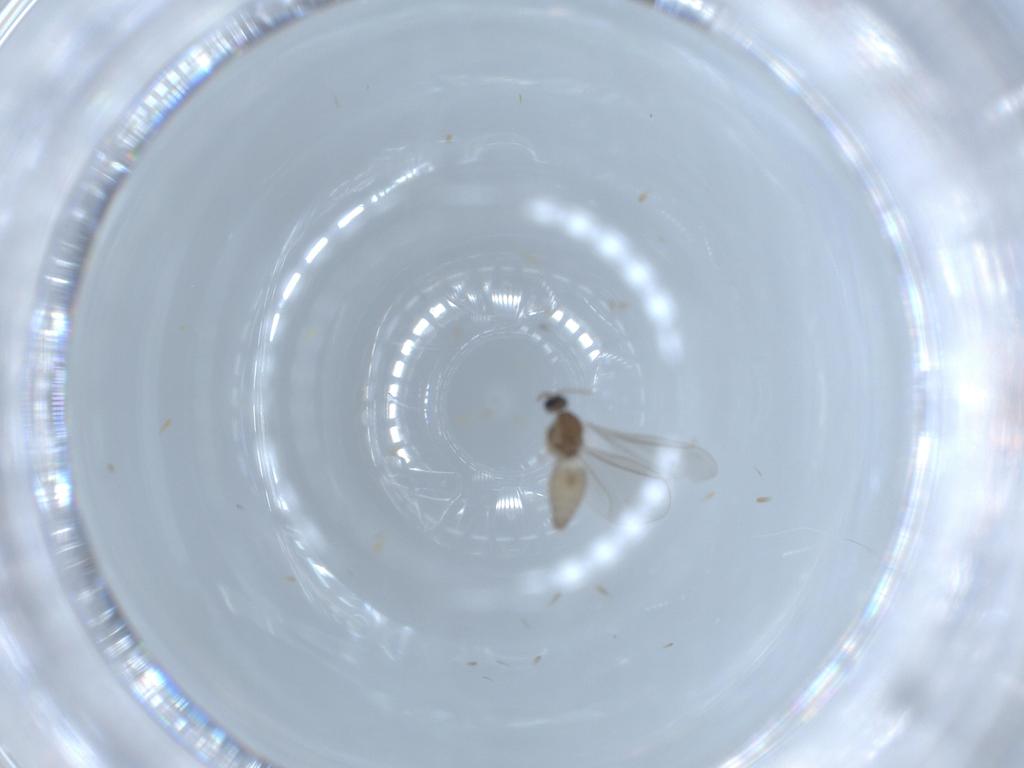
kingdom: Animalia
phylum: Arthropoda
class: Insecta
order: Diptera
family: Cecidomyiidae
